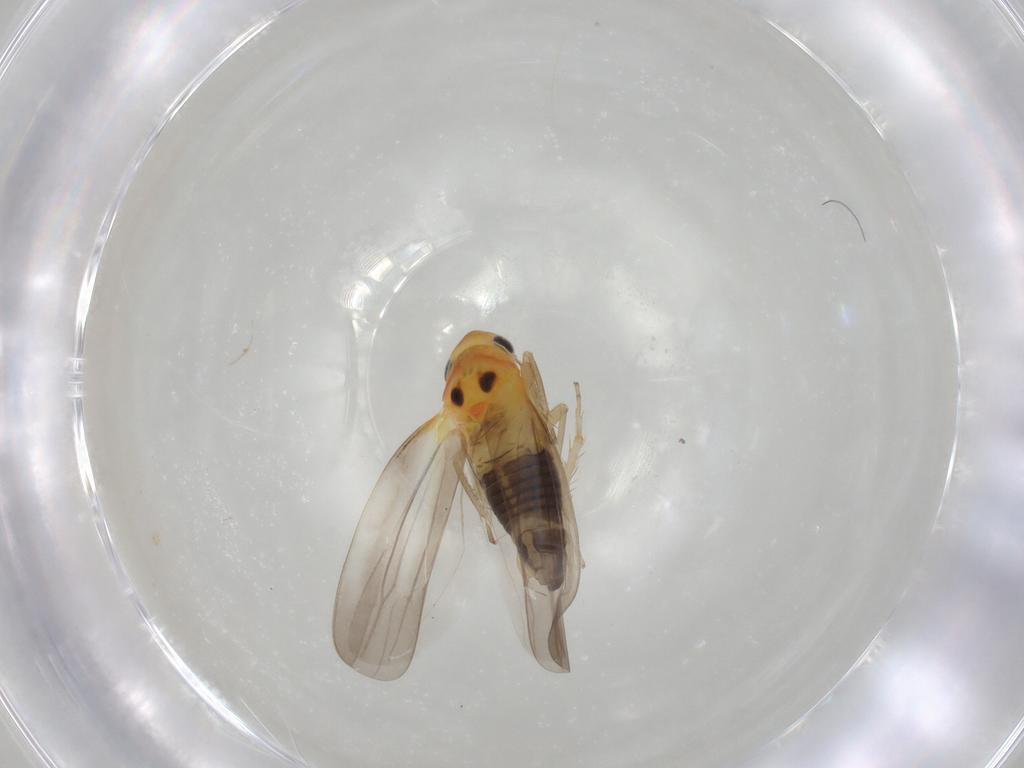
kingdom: Animalia
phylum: Arthropoda
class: Insecta
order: Hemiptera
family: Cicadellidae
